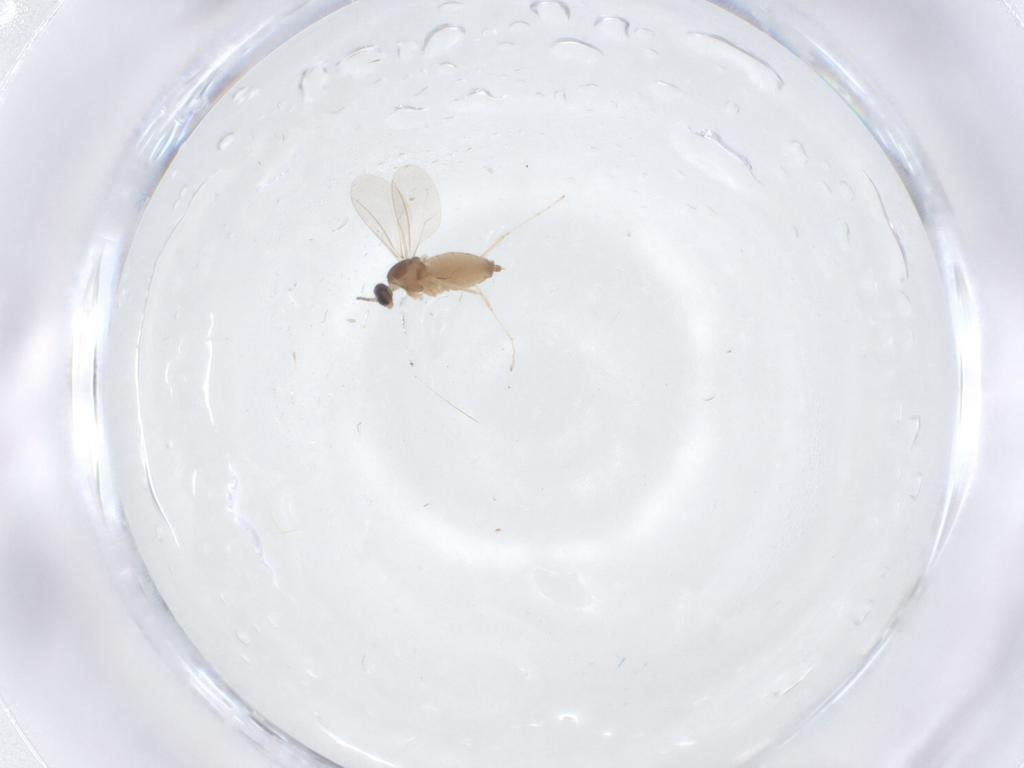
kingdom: Animalia
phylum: Arthropoda
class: Insecta
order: Diptera
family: Cecidomyiidae
